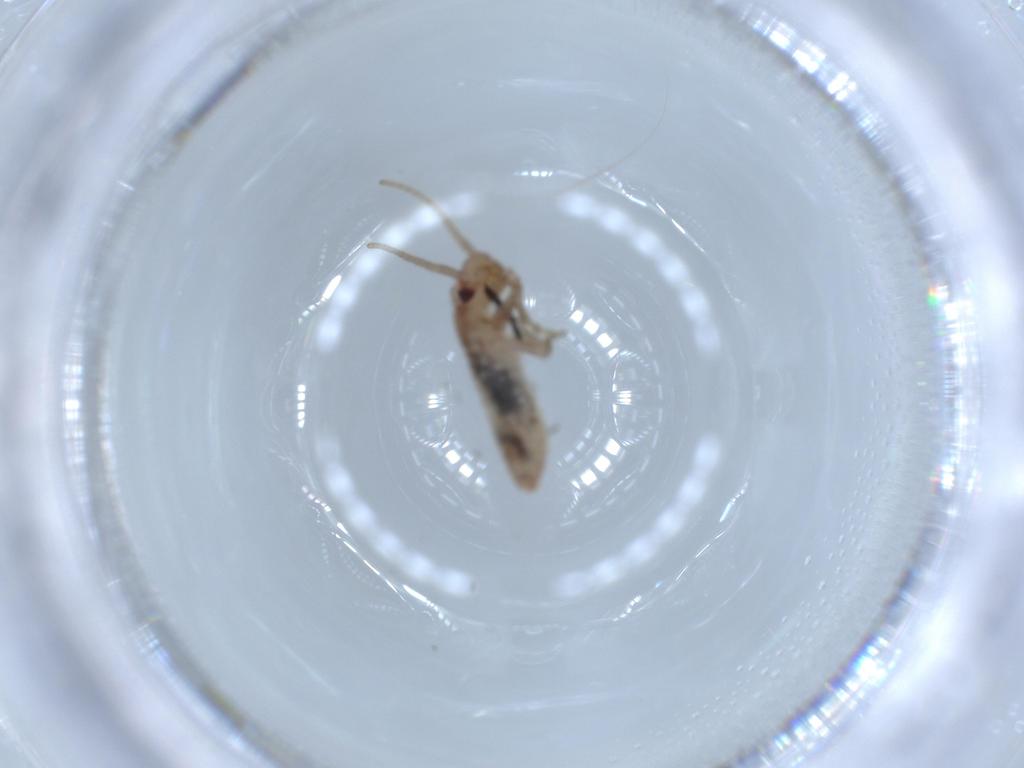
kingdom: Animalia
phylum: Arthropoda
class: Insecta
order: Orthoptera
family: Mogoplistidae
